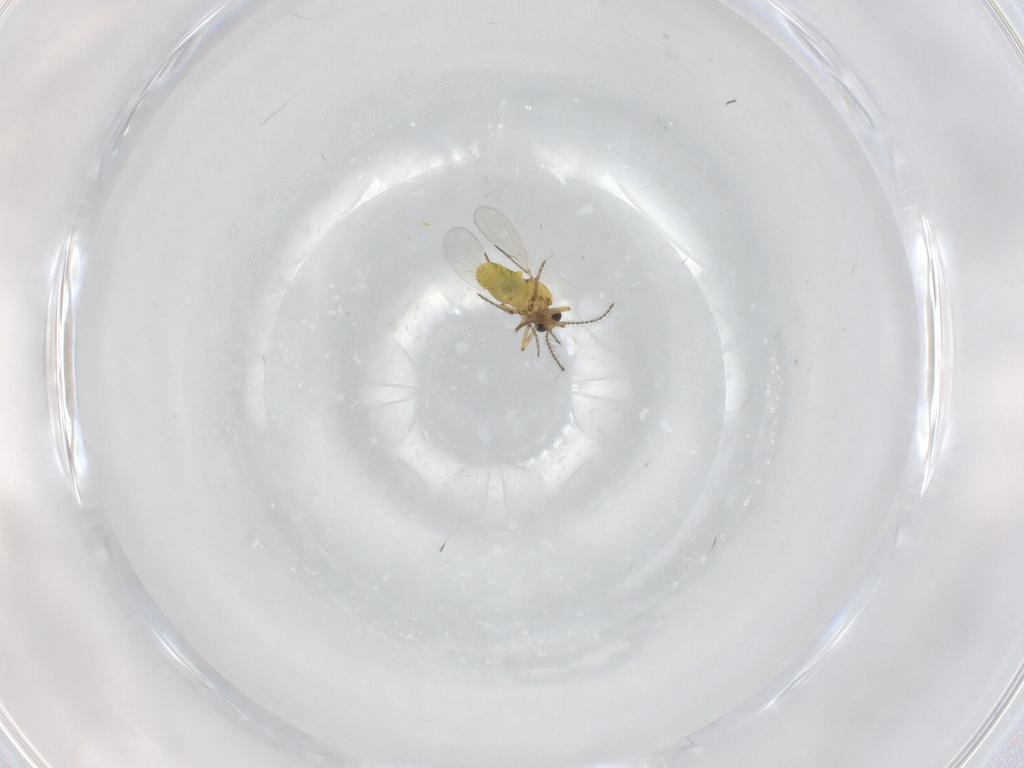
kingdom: Animalia
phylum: Arthropoda
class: Insecta
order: Diptera
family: Ceratopogonidae
